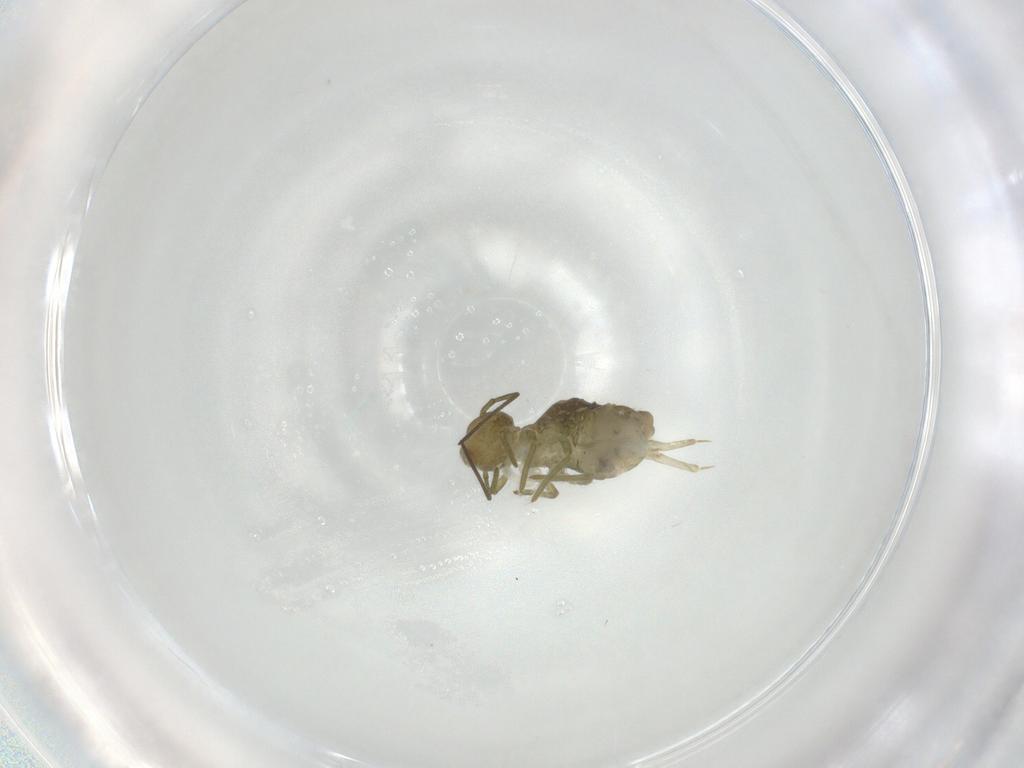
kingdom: Animalia
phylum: Arthropoda
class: Collembola
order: Symphypleona
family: Sminthuridae
